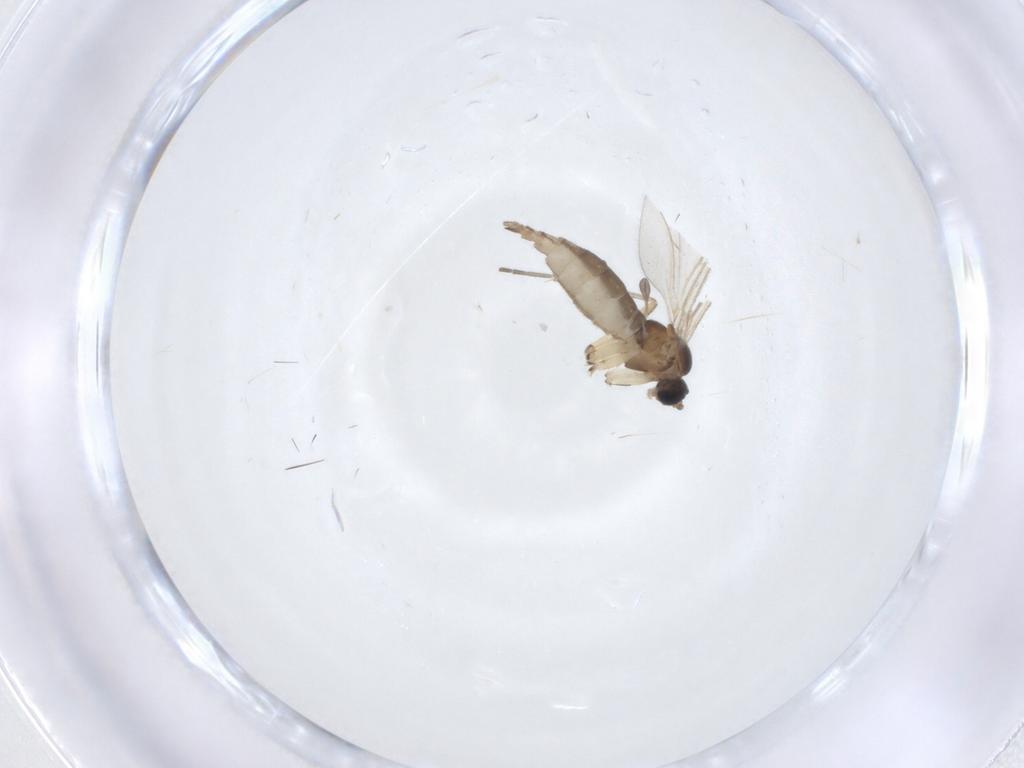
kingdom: Animalia
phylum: Arthropoda
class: Insecta
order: Diptera
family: Sciaridae
